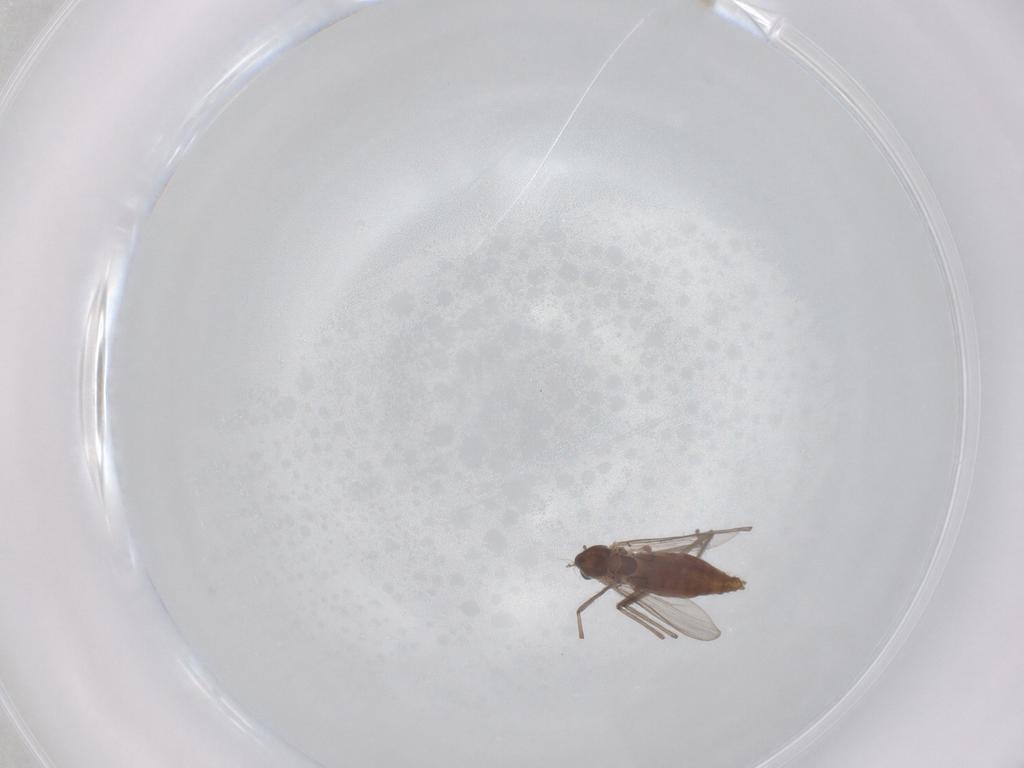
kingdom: Animalia
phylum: Arthropoda
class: Insecta
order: Diptera
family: Chironomidae
